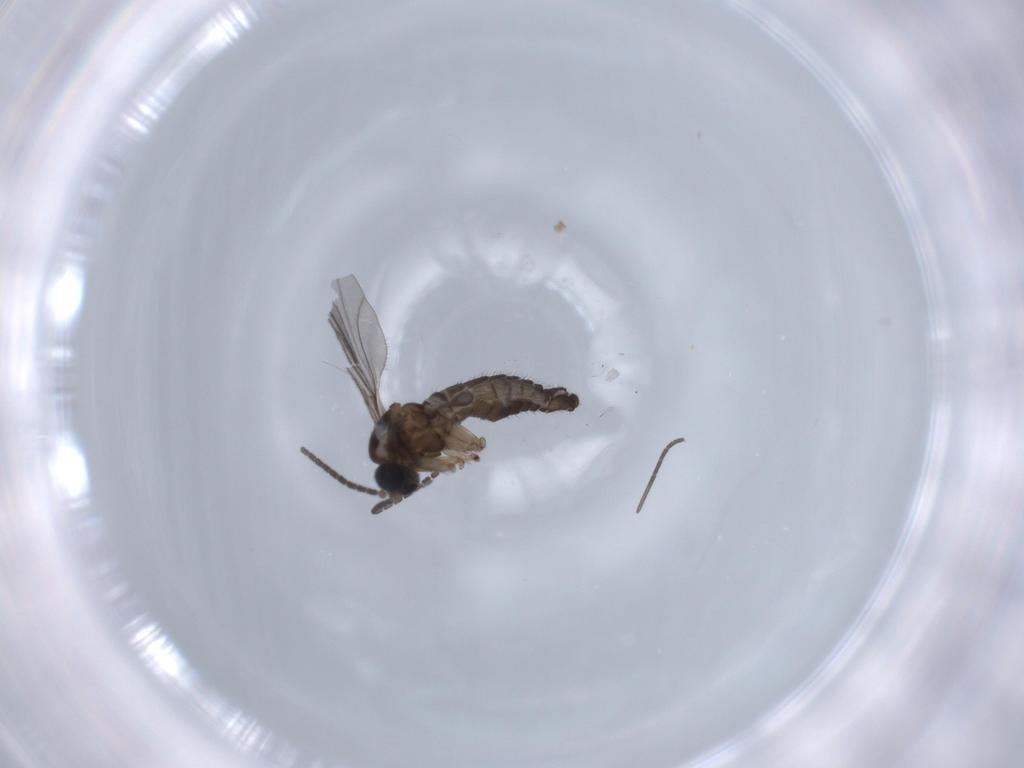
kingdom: Animalia
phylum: Arthropoda
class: Insecta
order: Diptera
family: Sciaridae
